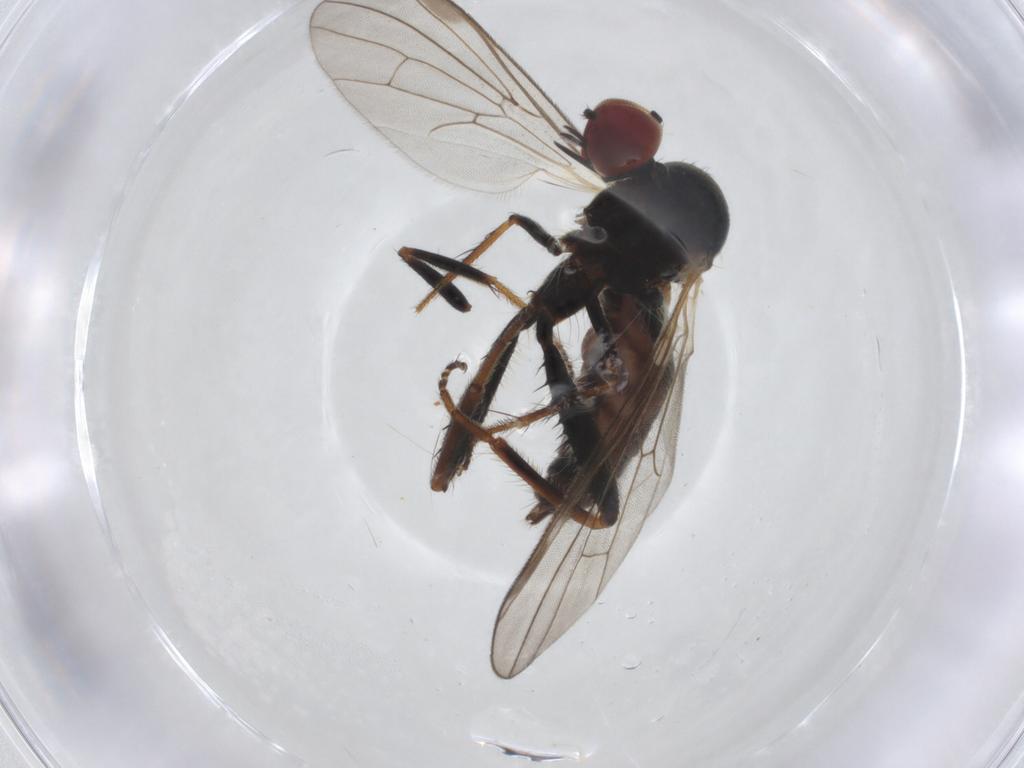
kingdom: Animalia
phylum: Arthropoda
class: Insecta
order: Diptera
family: Hybotidae
